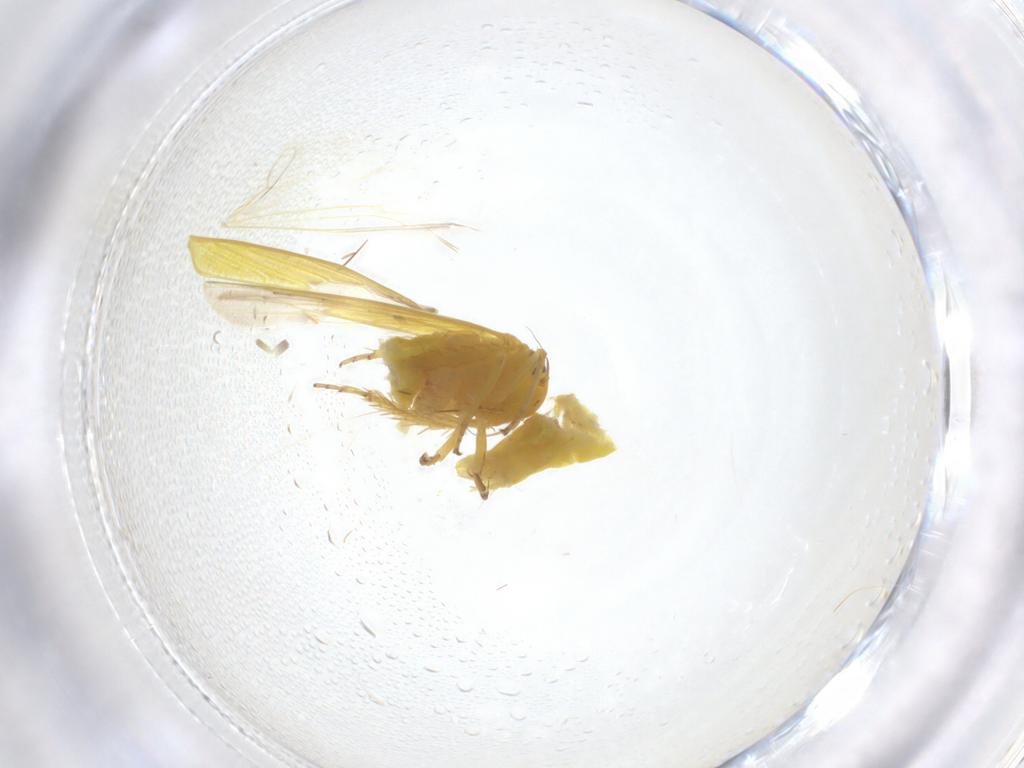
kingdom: Animalia
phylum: Arthropoda
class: Insecta
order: Hemiptera
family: Cicadellidae
